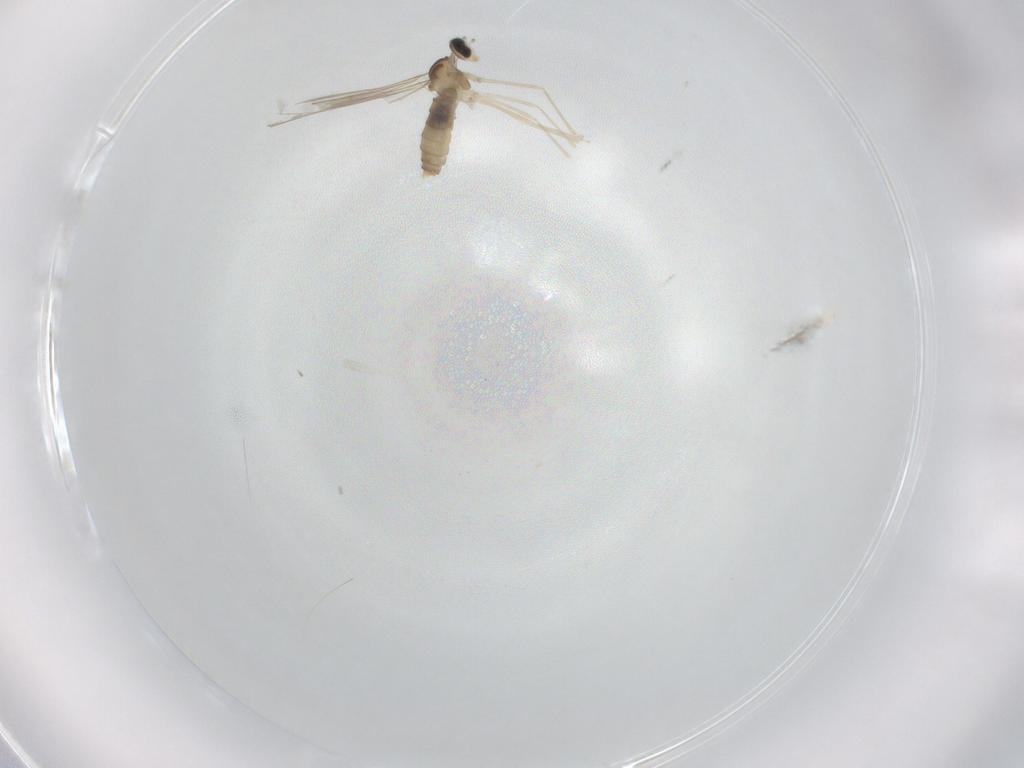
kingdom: Animalia
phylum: Arthropoda
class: Insecta
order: Diptera
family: Cecidomyiidae
